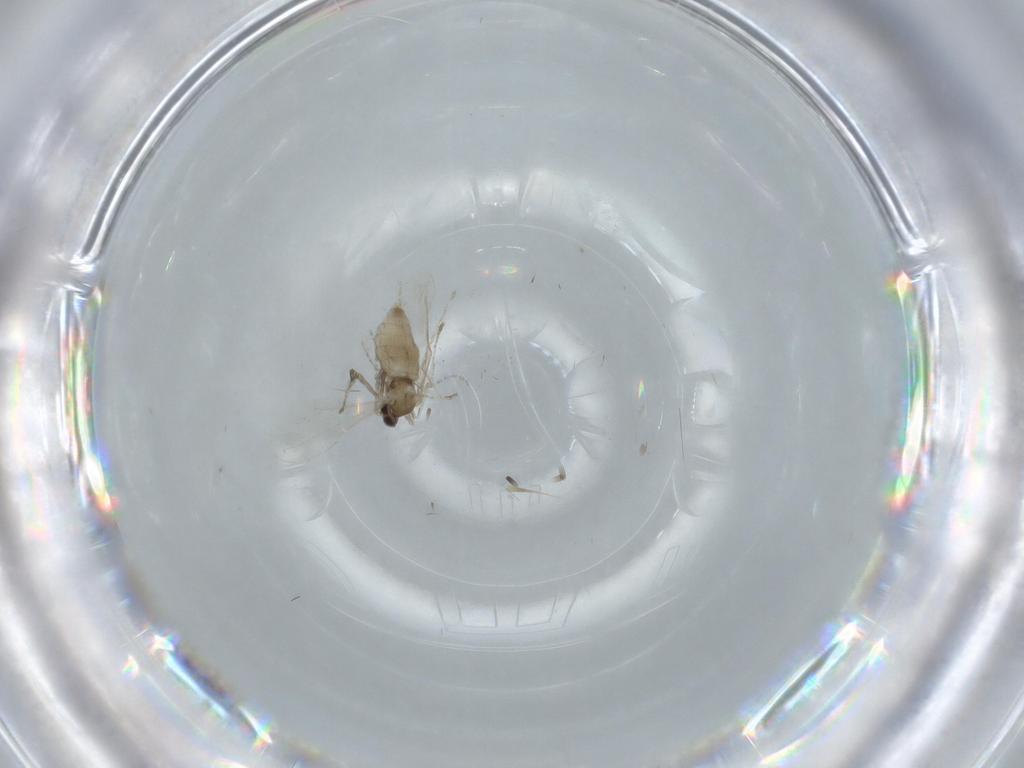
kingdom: Animalia
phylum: Arthropoda
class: Insecta
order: Diptera
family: Cecidomyiidae
